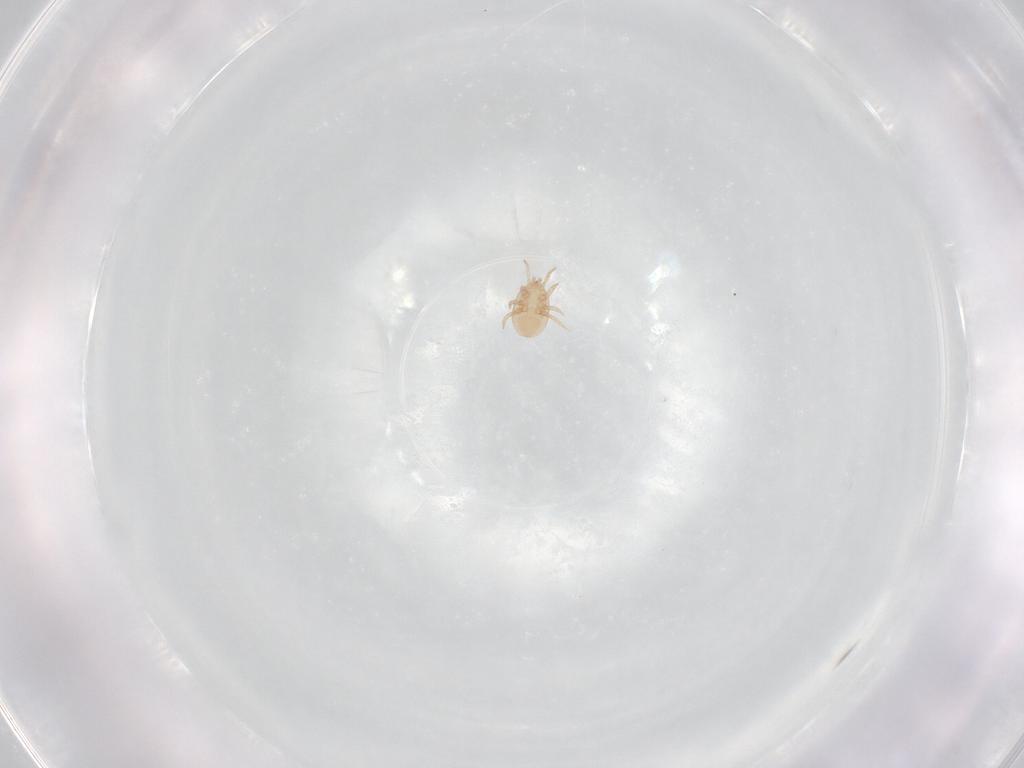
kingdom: Animalia
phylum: Arthropoda
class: Arachnida
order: Mesostigmata
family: Pachylaelapidae
